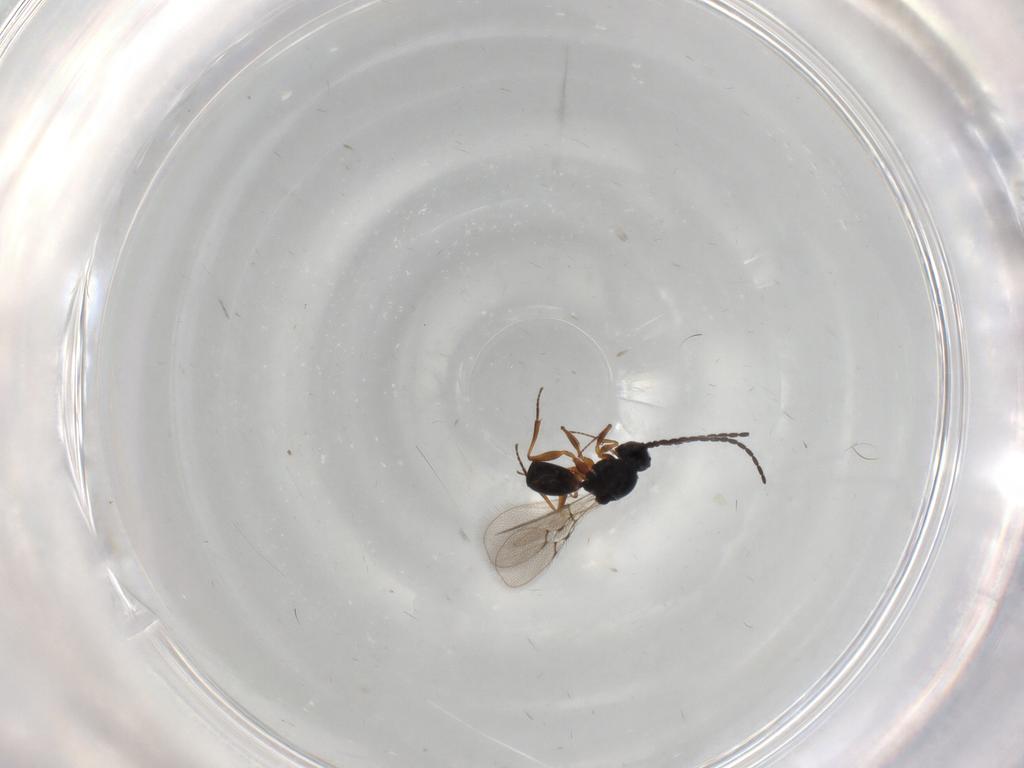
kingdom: Animalia
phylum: Arthropoda
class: Insecta
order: Hymenoptera
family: Figitidae
